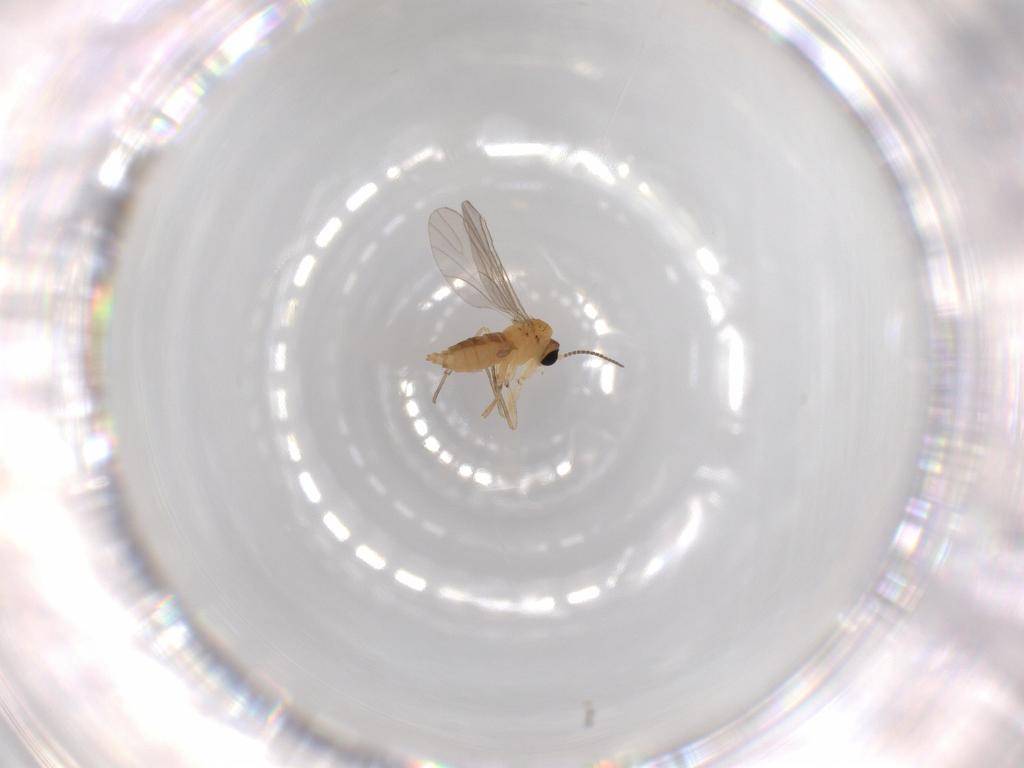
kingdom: Animalia
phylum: Arthropoda
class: Insecta
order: Diptera
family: Sciaridae
